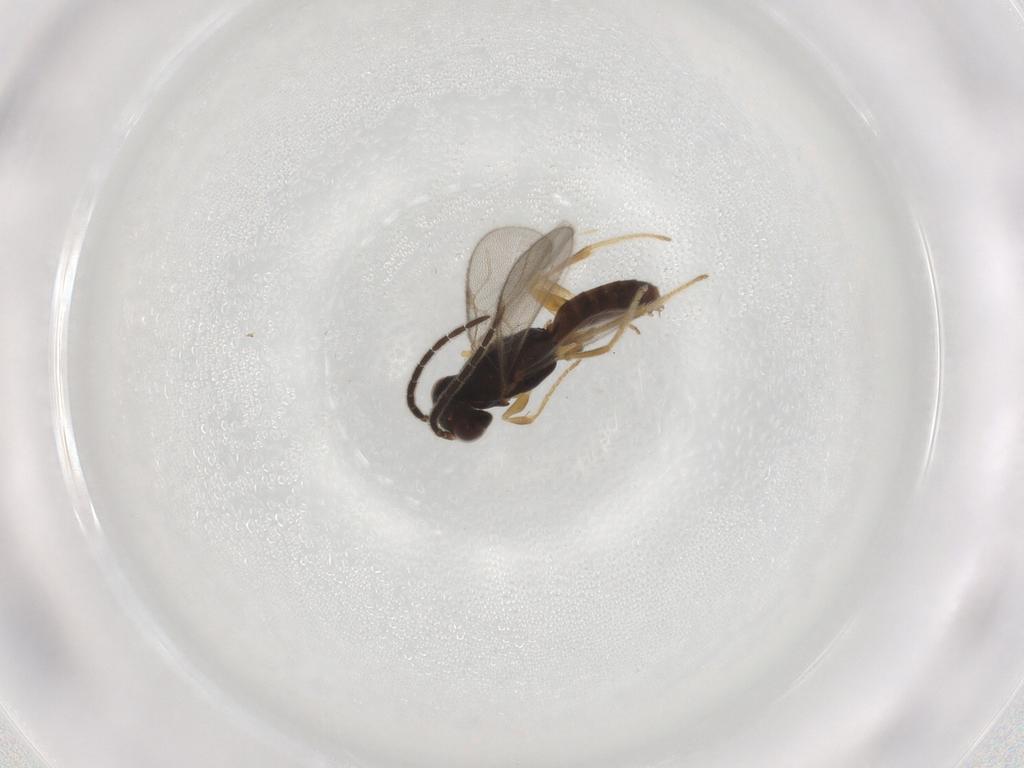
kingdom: Animalia
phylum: Arthropoda
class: Insecta
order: Hymenoptera
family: Dryinidae
